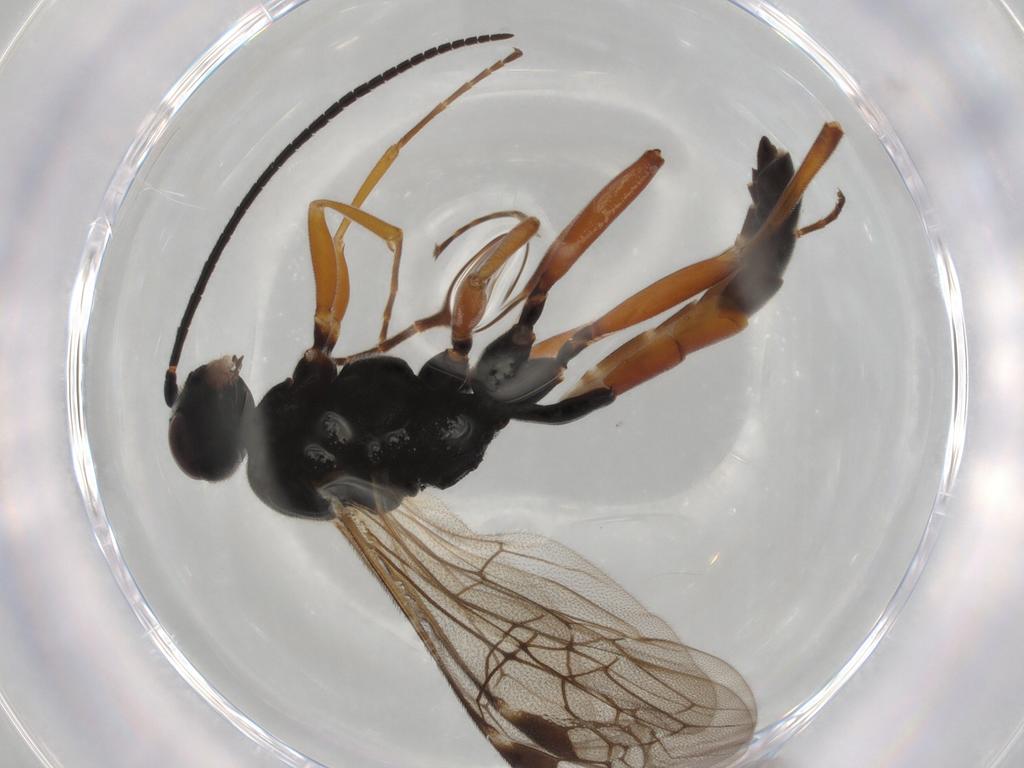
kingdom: Animalia
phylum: Arthropoda
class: Insecta
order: Hymenoptera
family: Formicidae
